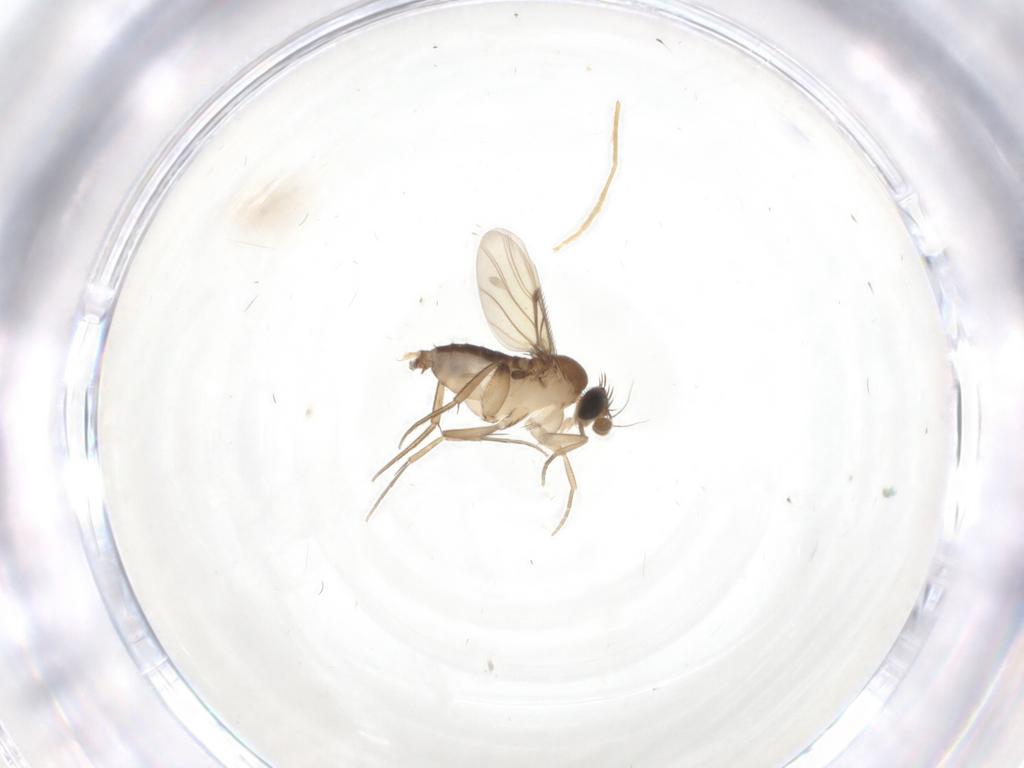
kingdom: Animalia
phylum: Arthropoda
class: Insecta
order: Diptera
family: Phoridae
